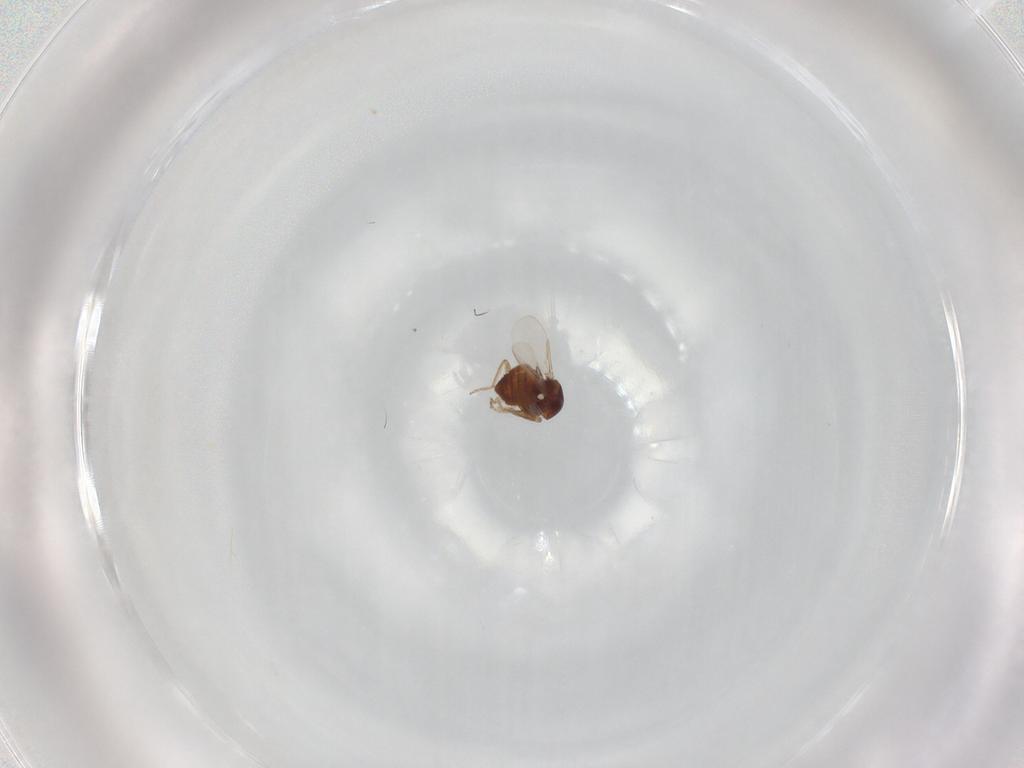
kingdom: Animalia
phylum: Arthropoda
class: Insecta
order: Diptera
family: Ceratopogonidae
